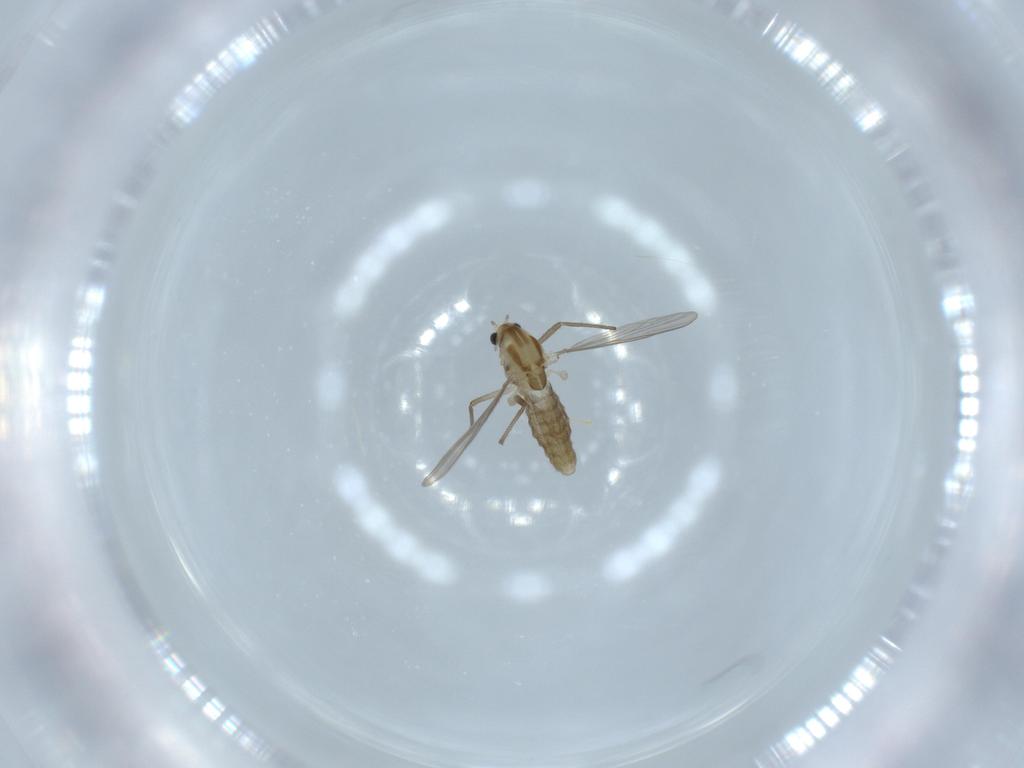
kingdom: Animalia
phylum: Arthropoda
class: Insecta
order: Diptera
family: Chironomidae
